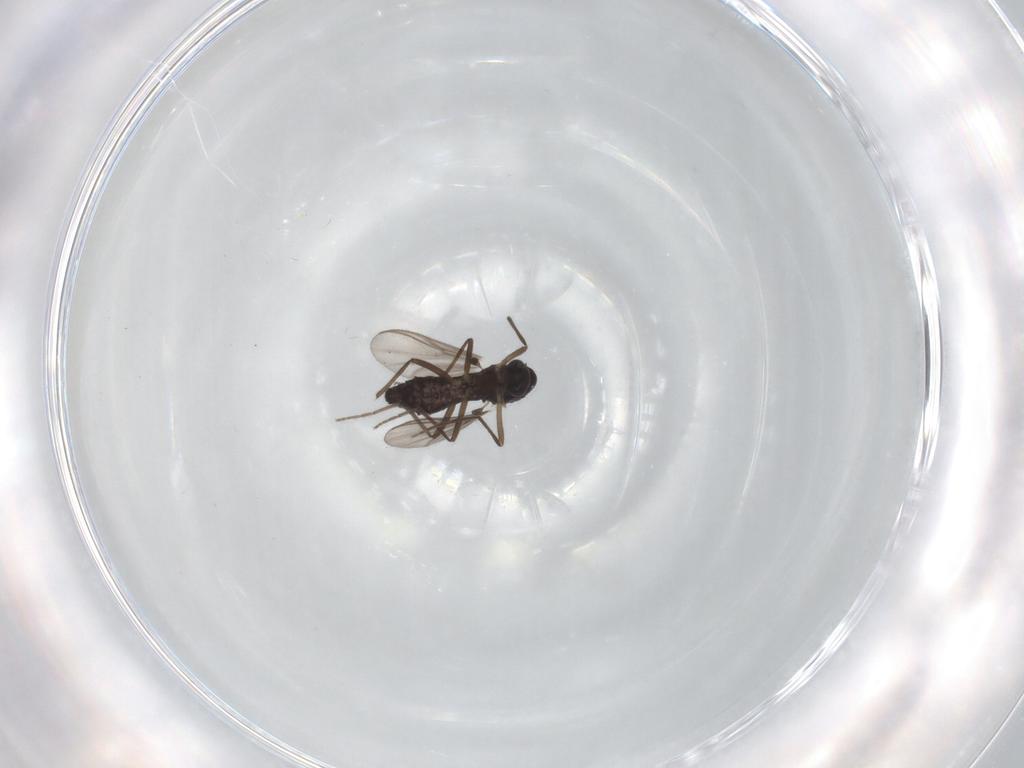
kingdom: Animalia
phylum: Arthropoda
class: Insecta
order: Diptera
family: Chironomidae
